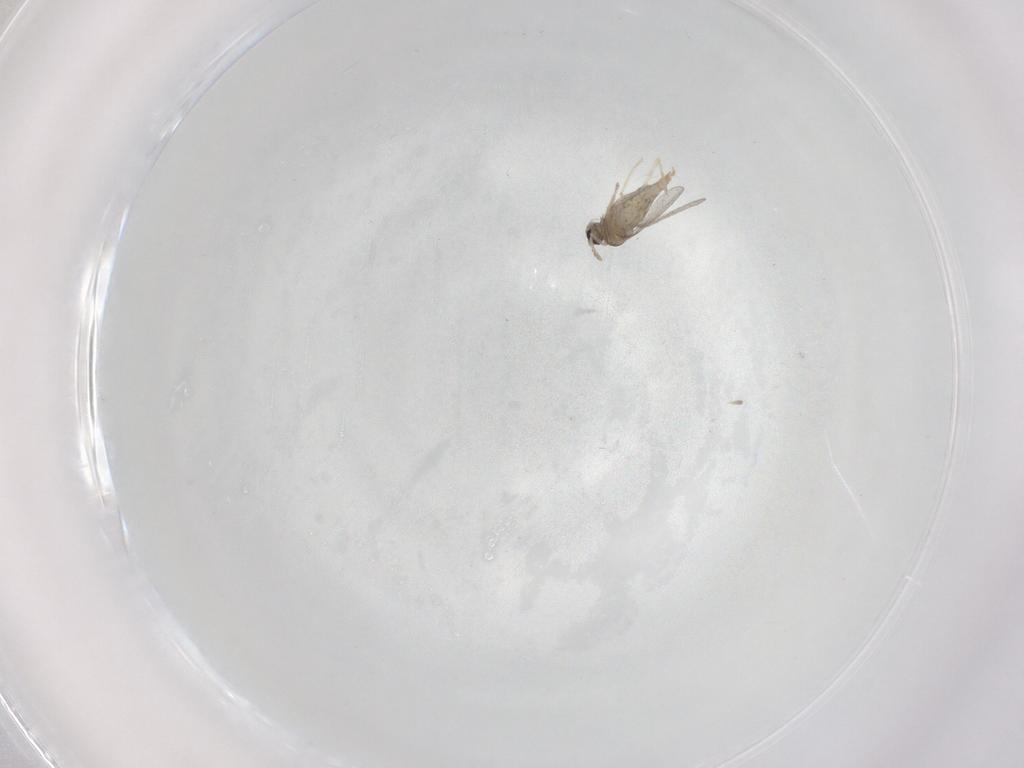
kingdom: Animalia
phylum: Arthropoda
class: Insecta
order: Diptera
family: Cecidomyiidae
